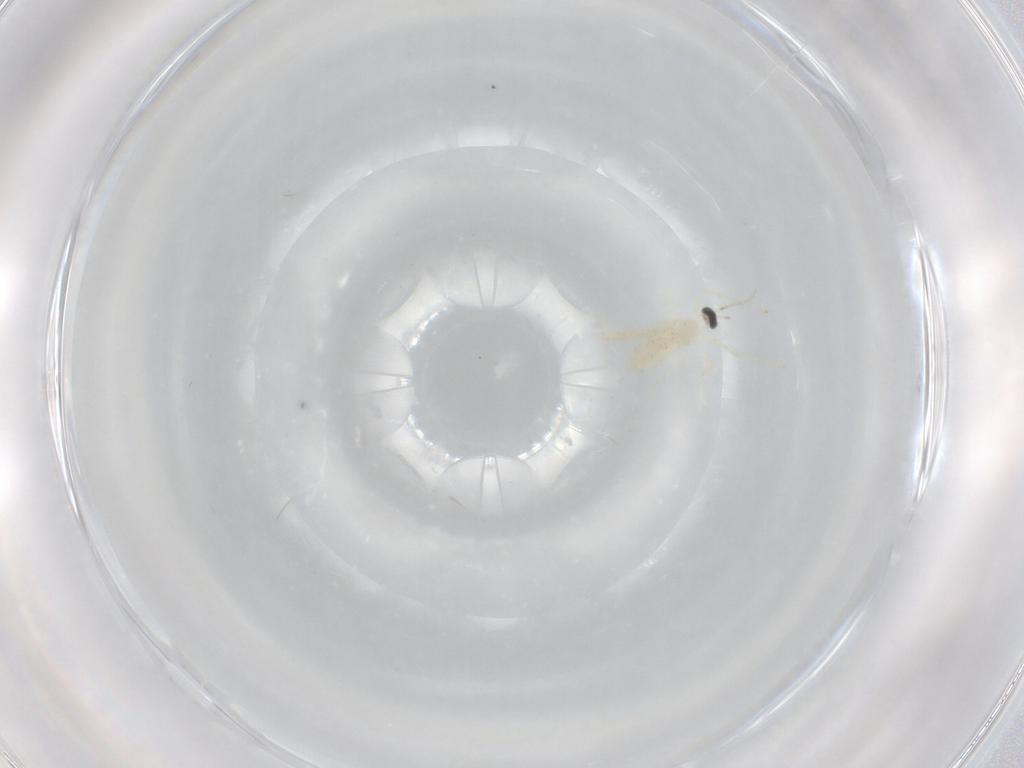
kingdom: Animalia
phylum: Arthropoda
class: Insecta
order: Diptera
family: Cecidomyiidae
